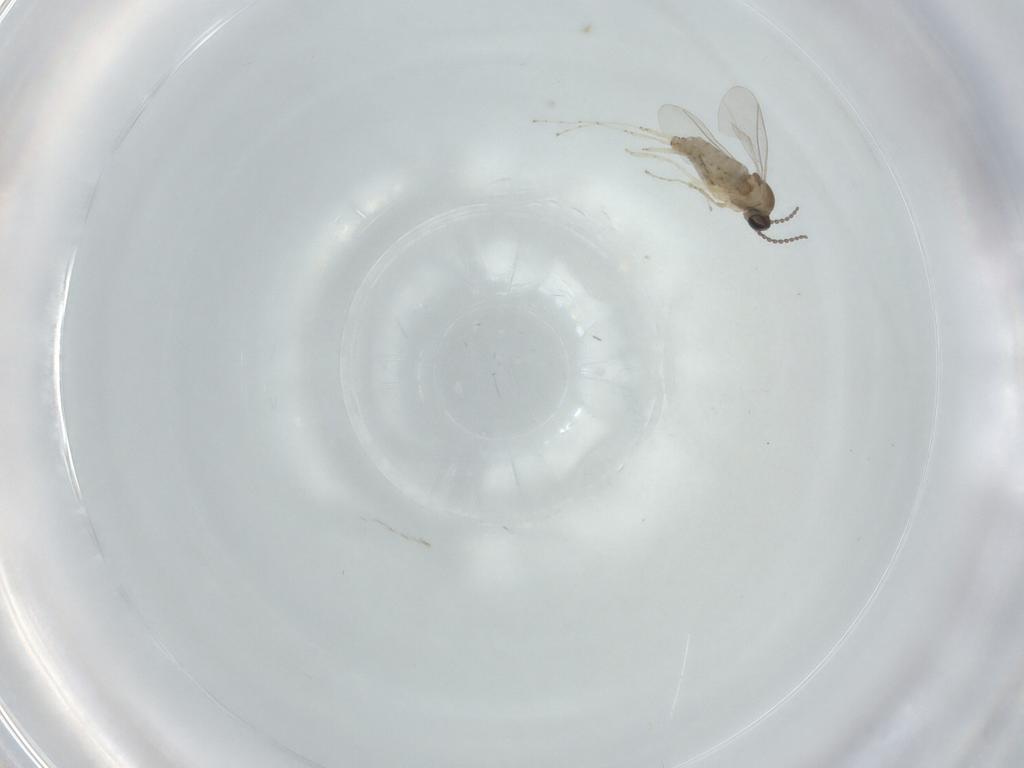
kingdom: Animalia
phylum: Arthropoda
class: Insecta
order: Diptera
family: Cecidomyiidae
